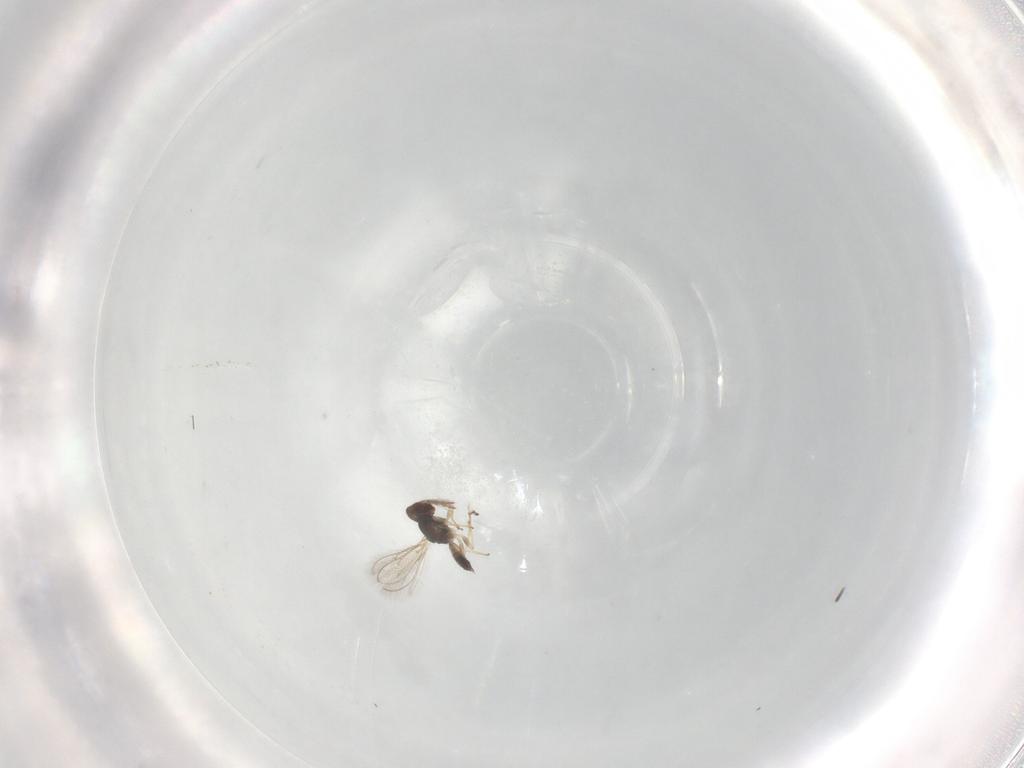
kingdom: Animalia
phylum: Arthropoda
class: Insecta
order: Hymenoptera
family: Eulophidae
